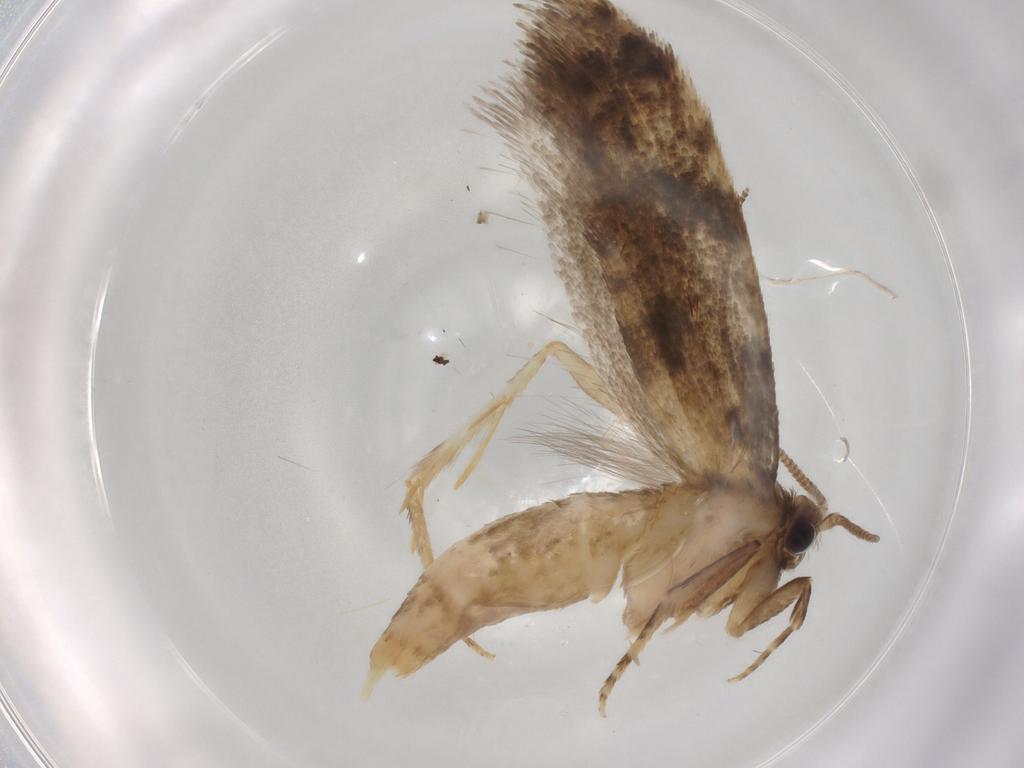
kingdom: Animalia
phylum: Arthropoda
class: Insecta
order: Lepidoptera
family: Tineidae
